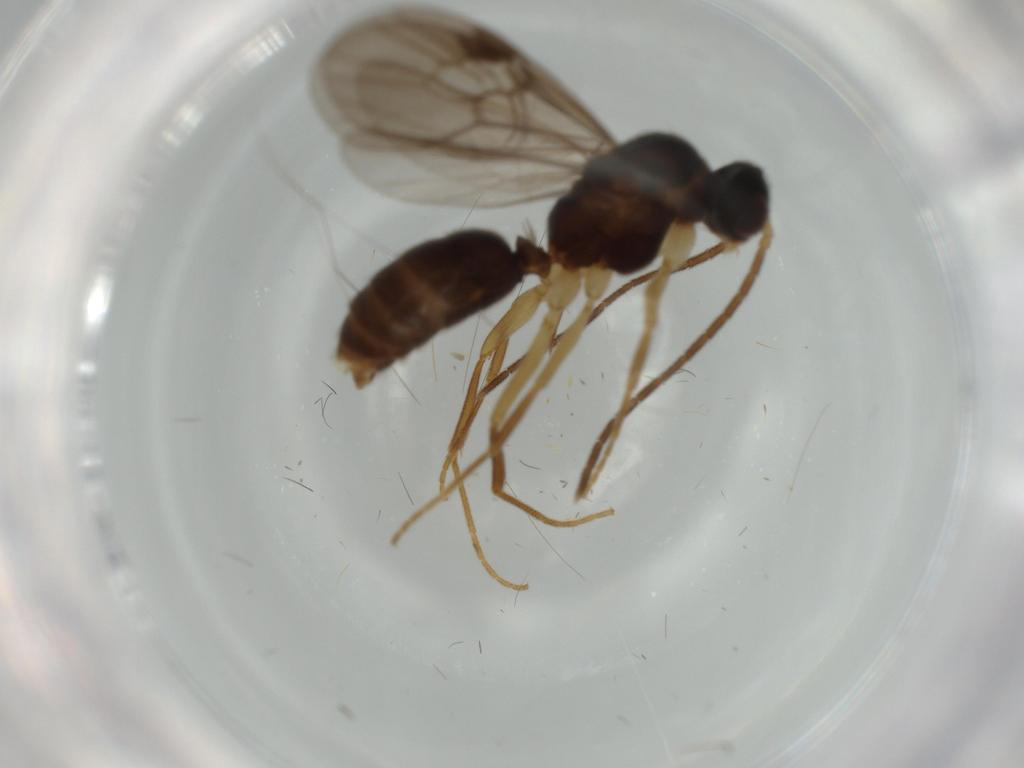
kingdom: Animalia
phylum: Arthropoda
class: Insecta
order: Hymenoptera
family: Formicidae
